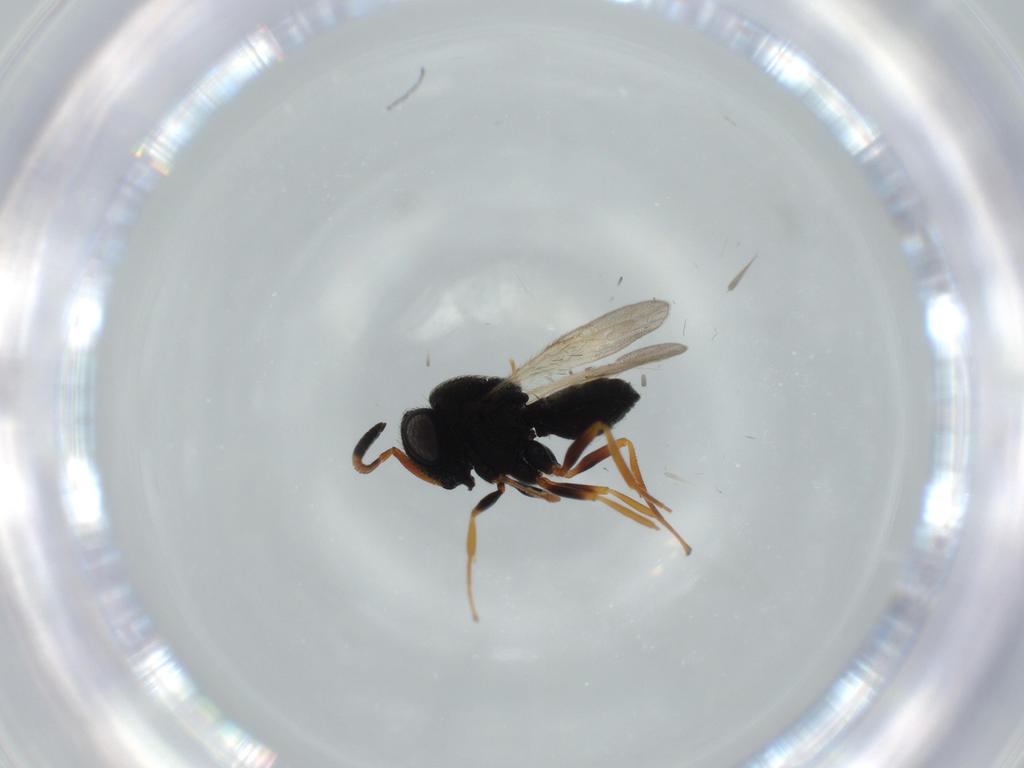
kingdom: Animalia
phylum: Arthropoda
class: Insecta
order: Hymenoptera
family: Scelionidae
